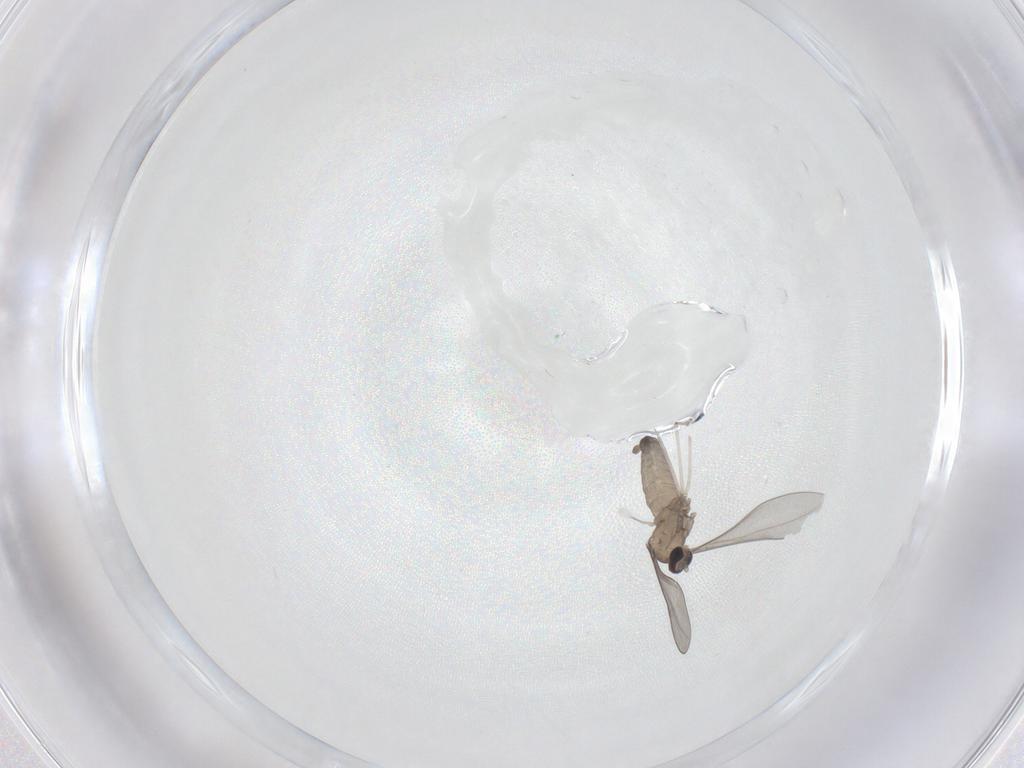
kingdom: Animalia
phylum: Arthropoda
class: Insecta
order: Diptera
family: Cecidomyiidae
